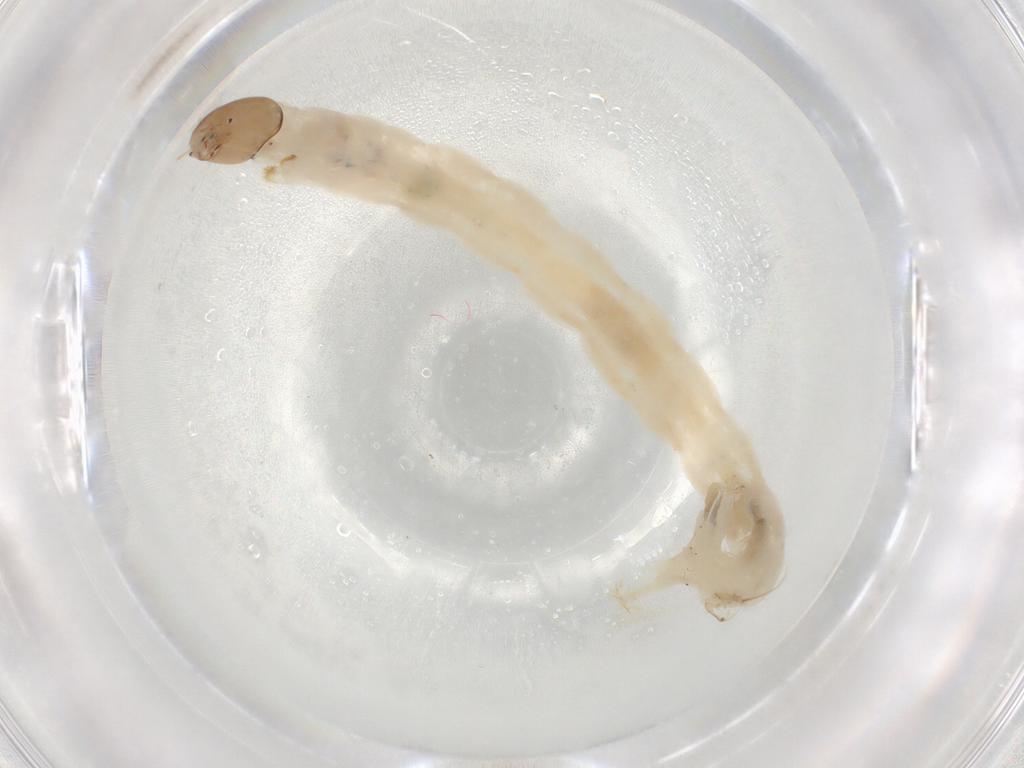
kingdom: Animalia
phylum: Arthropoda
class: Insecta
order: Diptera
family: Chironomidae
